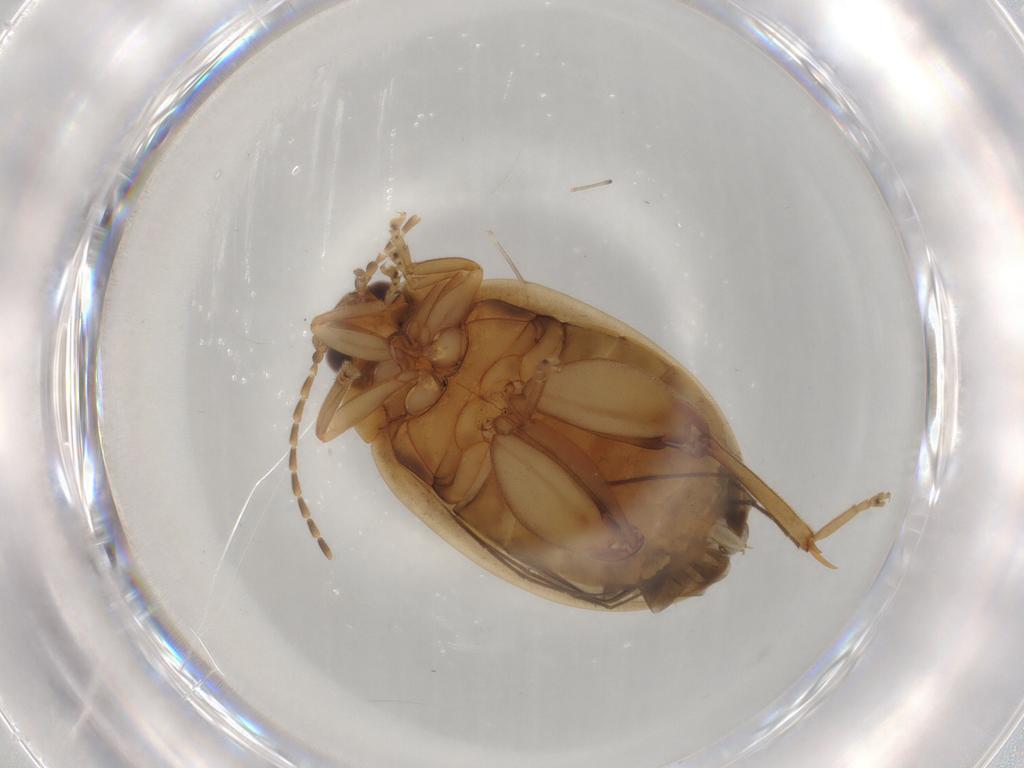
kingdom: Animalia
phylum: Arthropoda
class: Insecta
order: Coleoptera
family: Scirtidae
